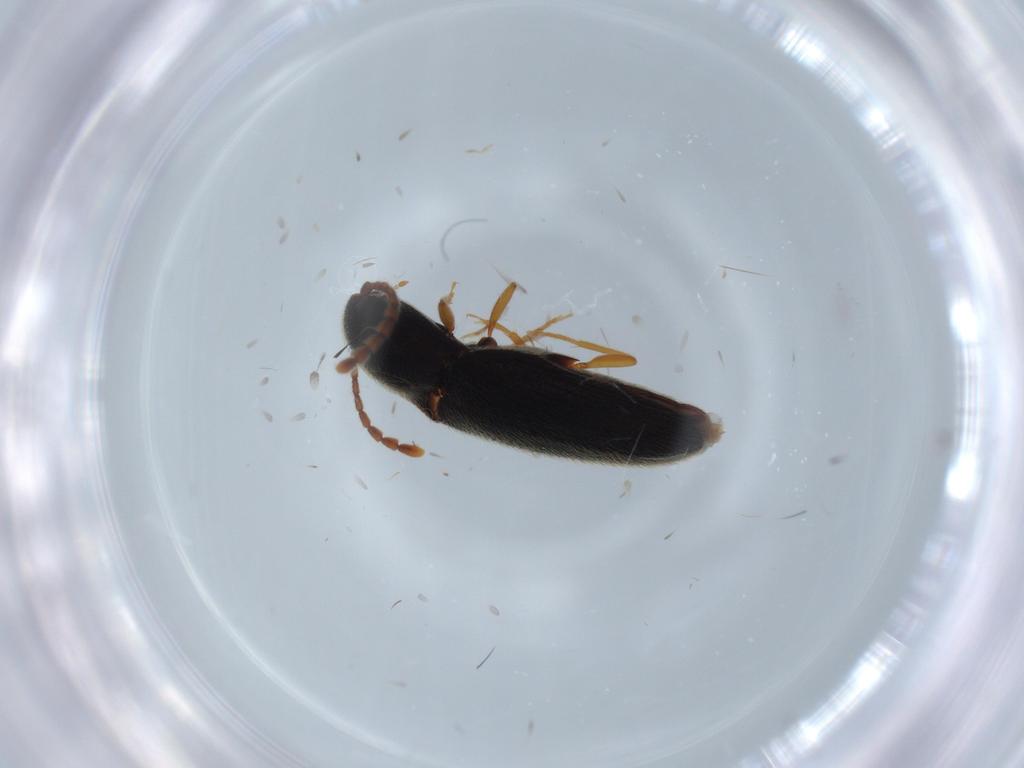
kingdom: Animalia
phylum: Arthropoda
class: Insecta
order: Coleoptera
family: Elateridae
